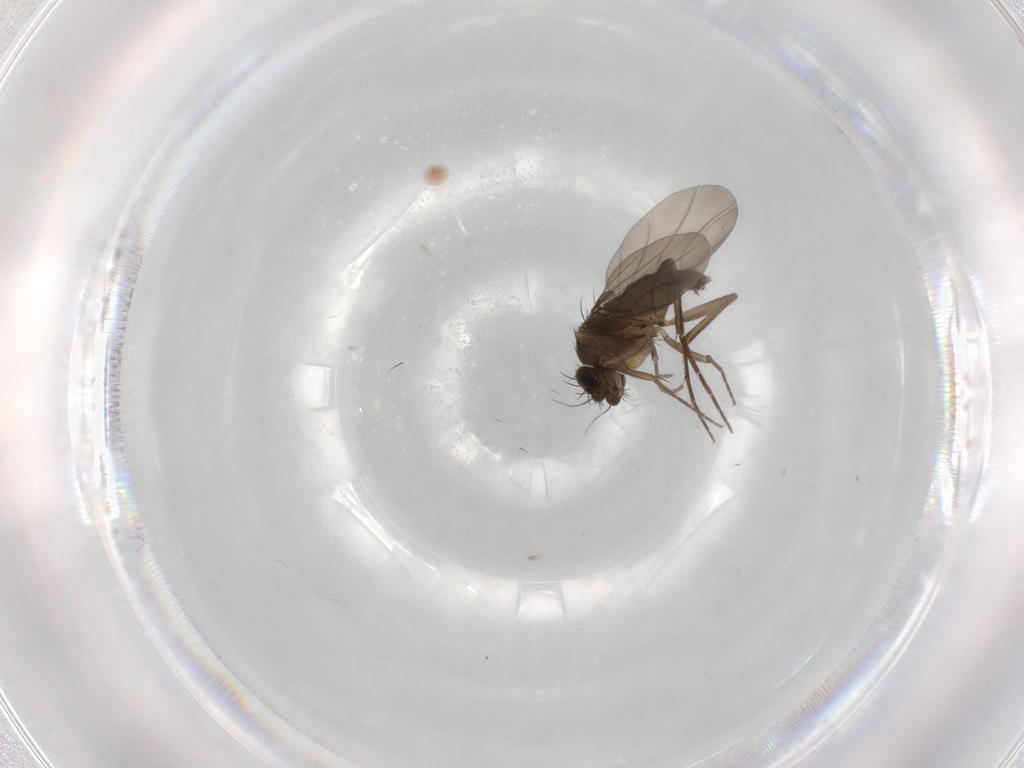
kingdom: Animalia
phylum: Arthropoda
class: Insecta
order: Diptera
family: Phoridae
